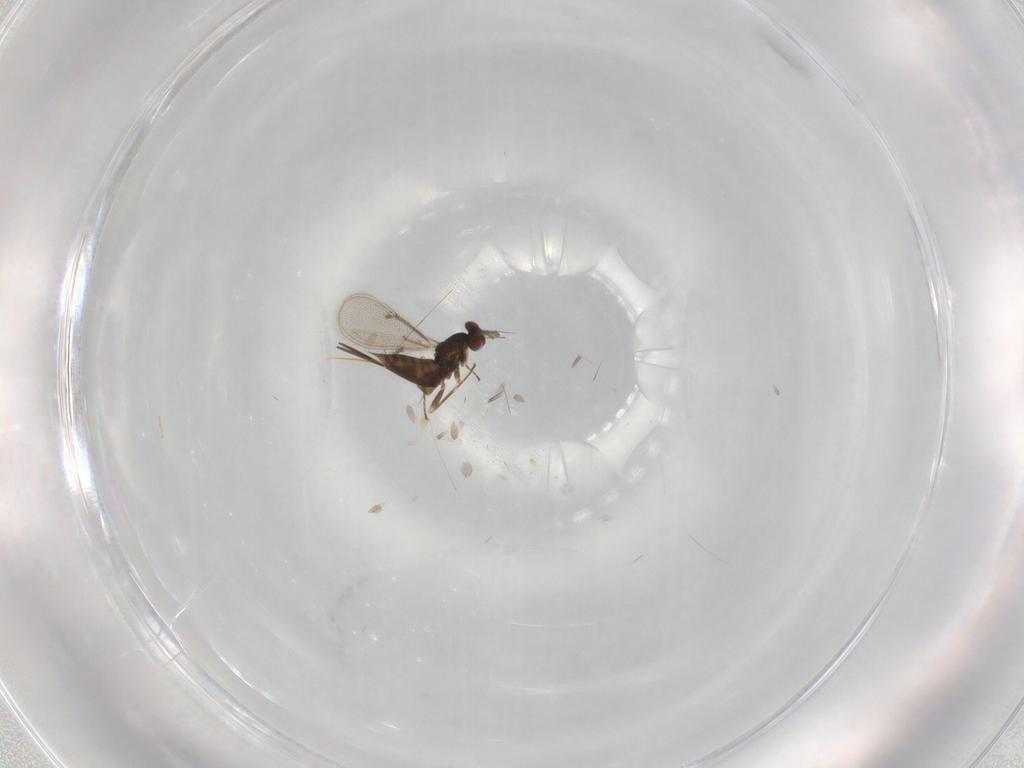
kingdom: Animalia
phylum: Arthropoda
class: Insecta
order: Hymenoptera
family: Eulophidae
